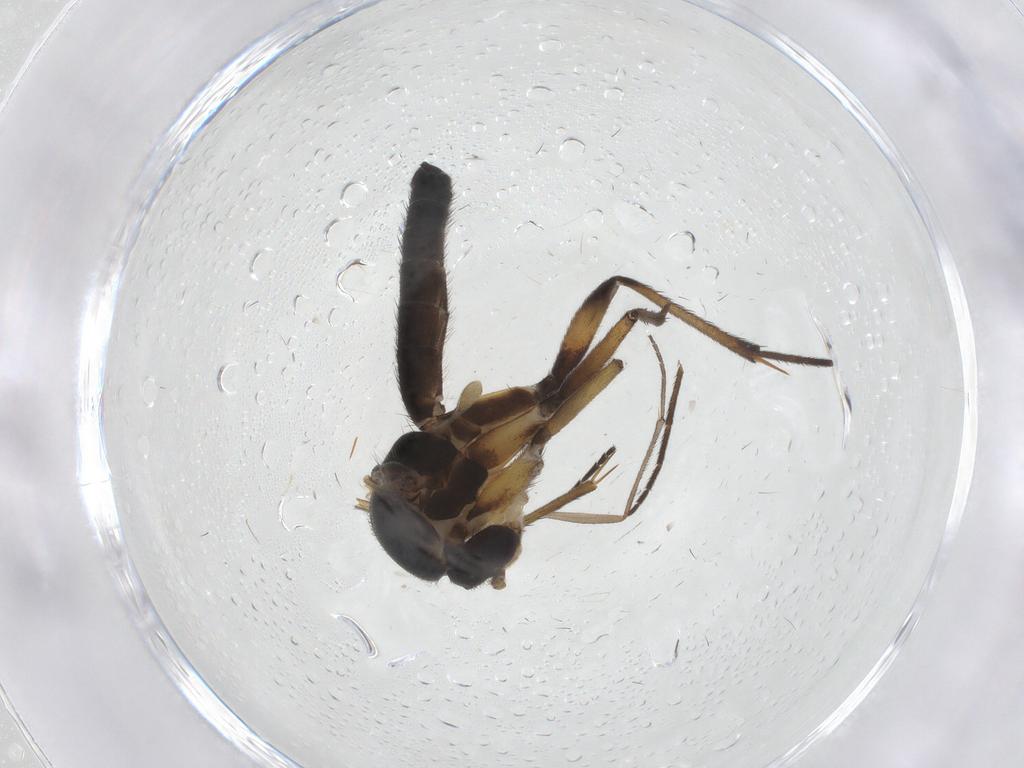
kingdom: Animalia
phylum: Arthropoda
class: Insecta
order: Diptera
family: Mycetophilidae
